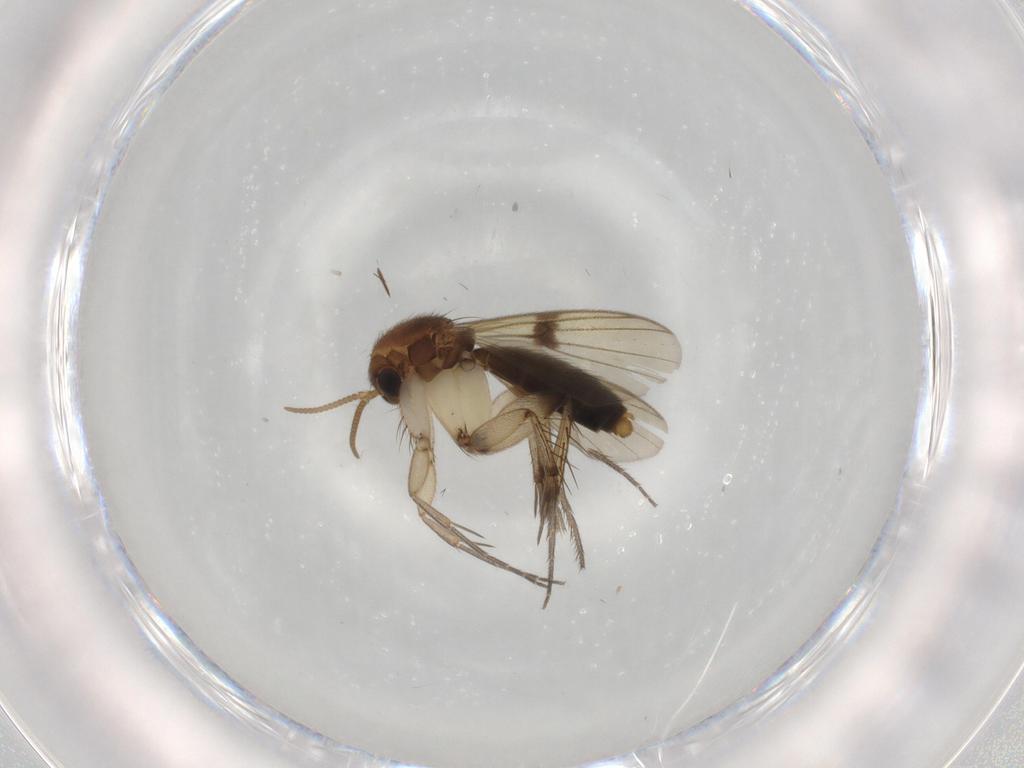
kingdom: Animalia
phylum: Arthropoda
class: Insecta
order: Diptera
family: Mycetophilidae
